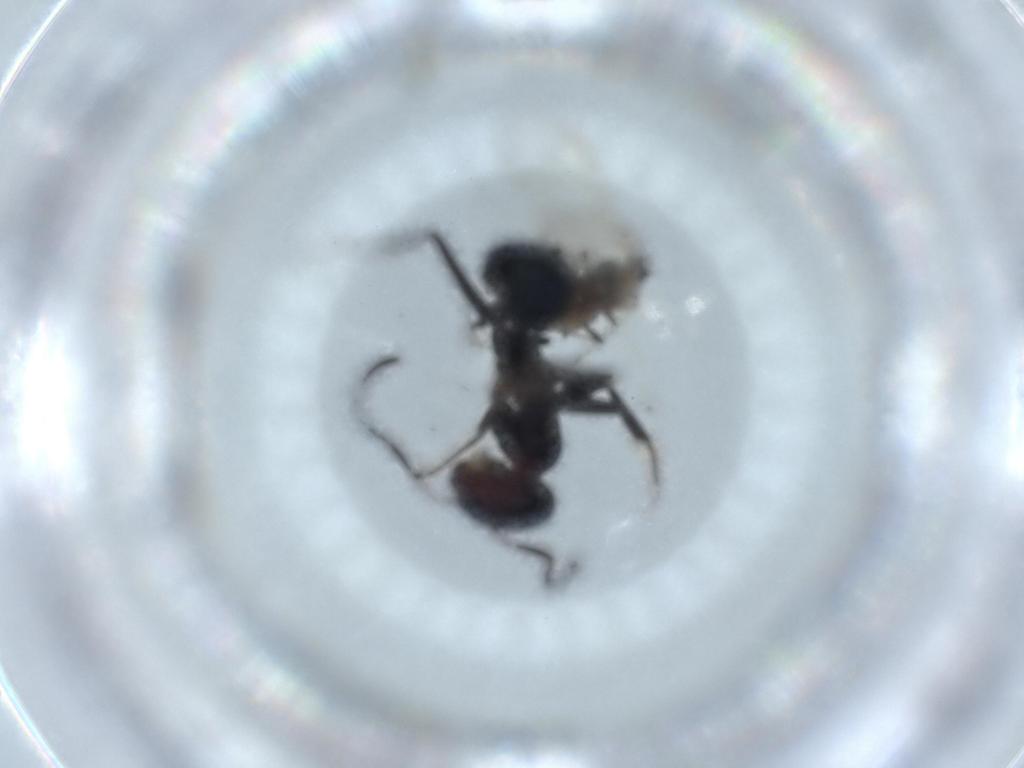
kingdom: Animalia
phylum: Arthropoda
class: Insecta
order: Hymenoptera
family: Formicidae
